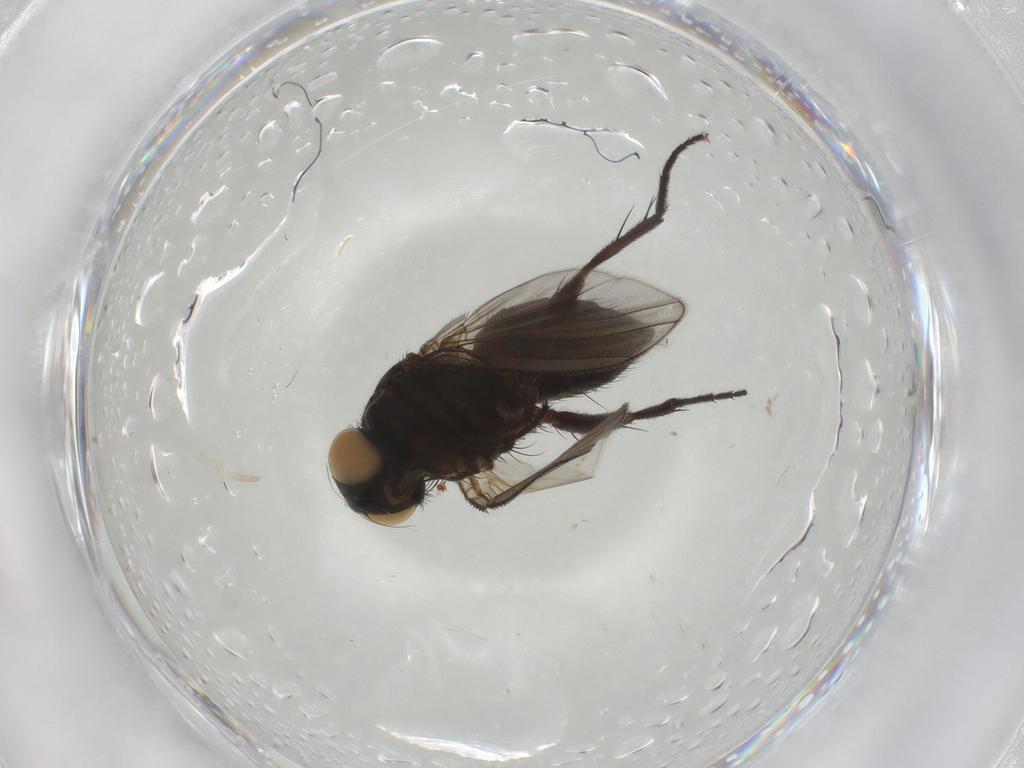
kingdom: Animalia
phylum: Arthropoda
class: Insecta
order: Diptera
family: Muscidae
